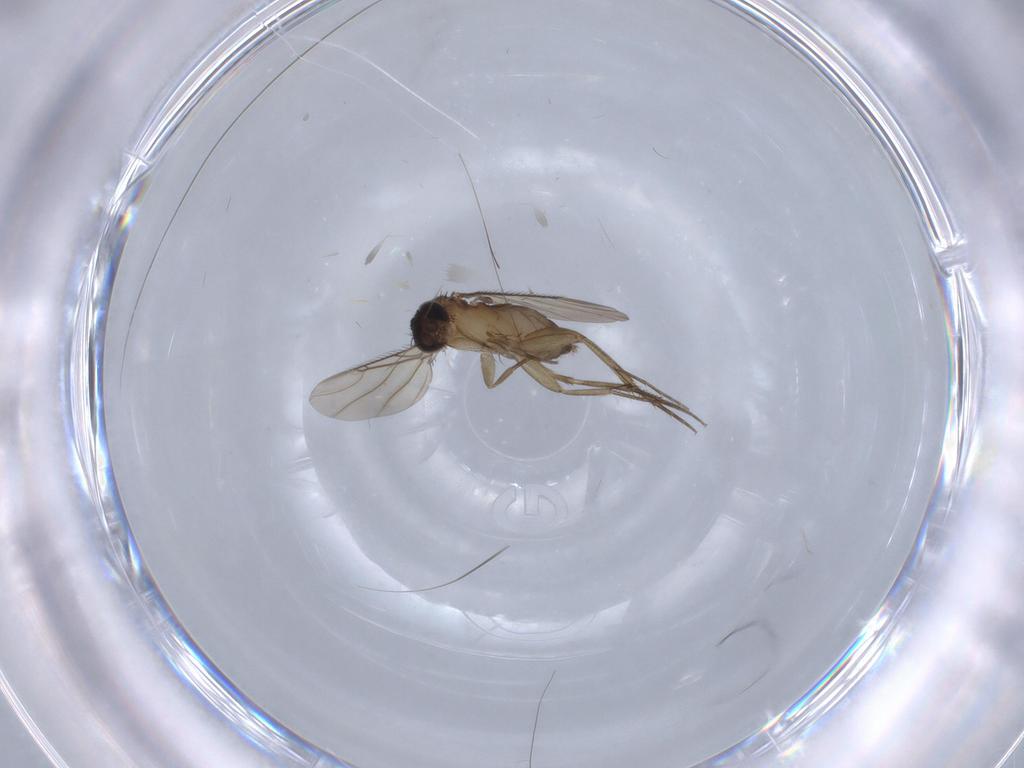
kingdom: Animalia
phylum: Arthropoda
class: Insecta
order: Diptera
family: Phoridae
